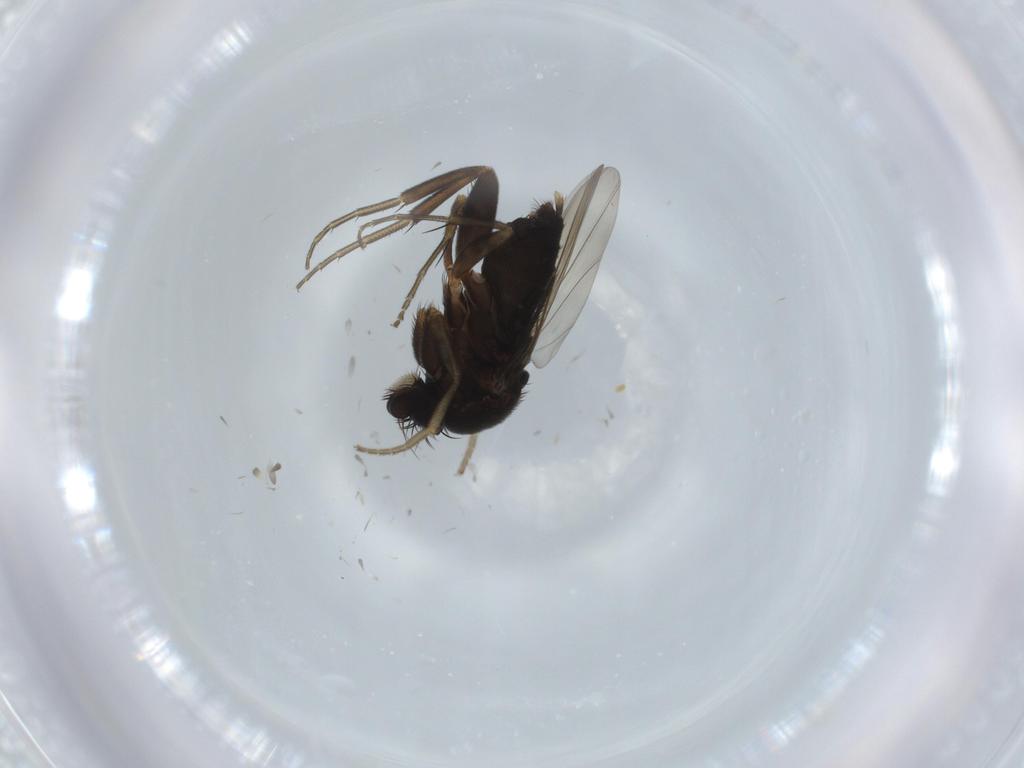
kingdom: Animalia
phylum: Arthropoda
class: Insecta
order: Diptera
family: Phoridae
